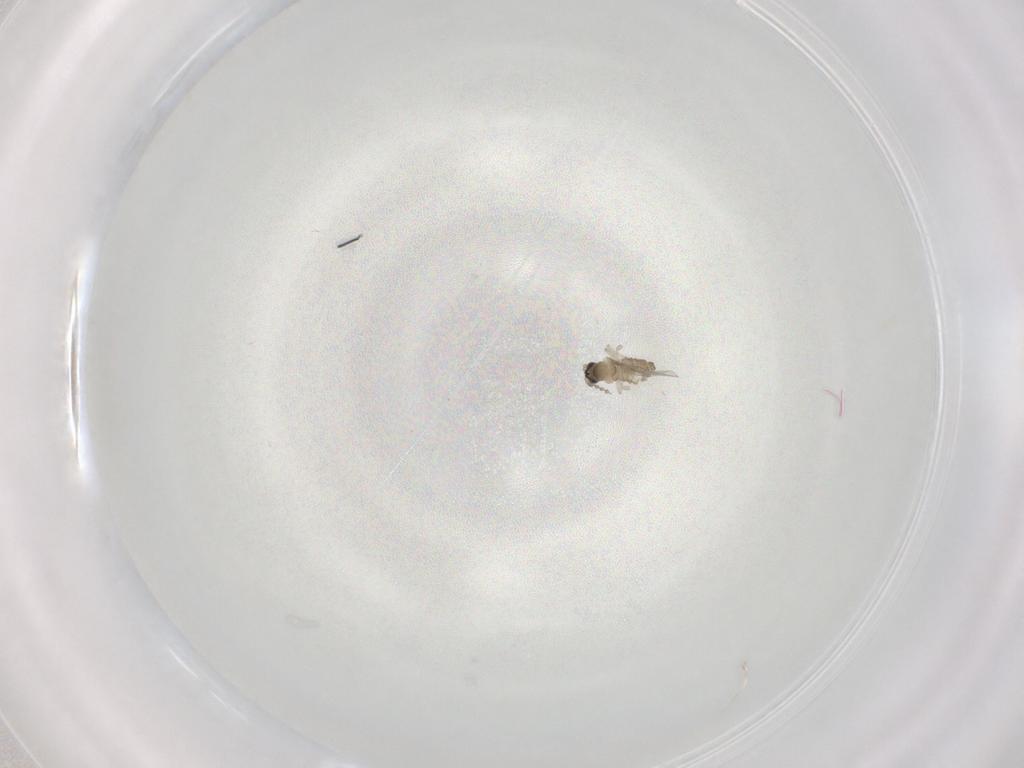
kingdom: Animalia
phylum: Arthropoda
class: Insecta
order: Diptera
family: Cecidomyiidae
